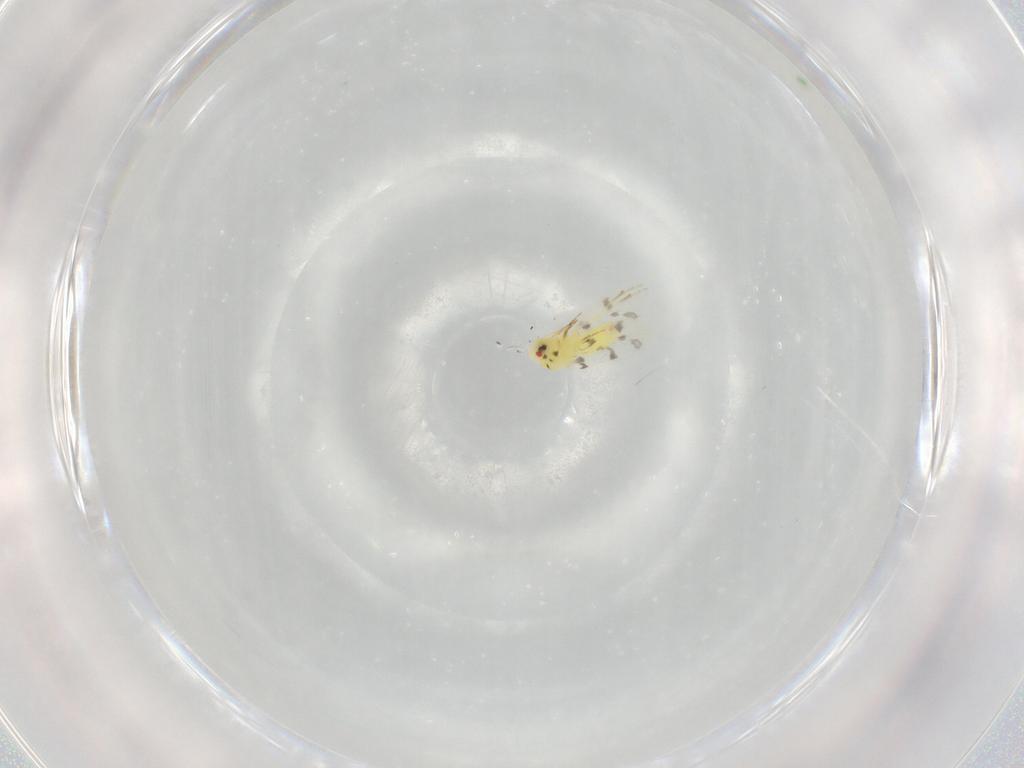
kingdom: Animalia
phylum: Arthropoda
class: Insecta
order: Hemiptera
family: Aleyrodidae
